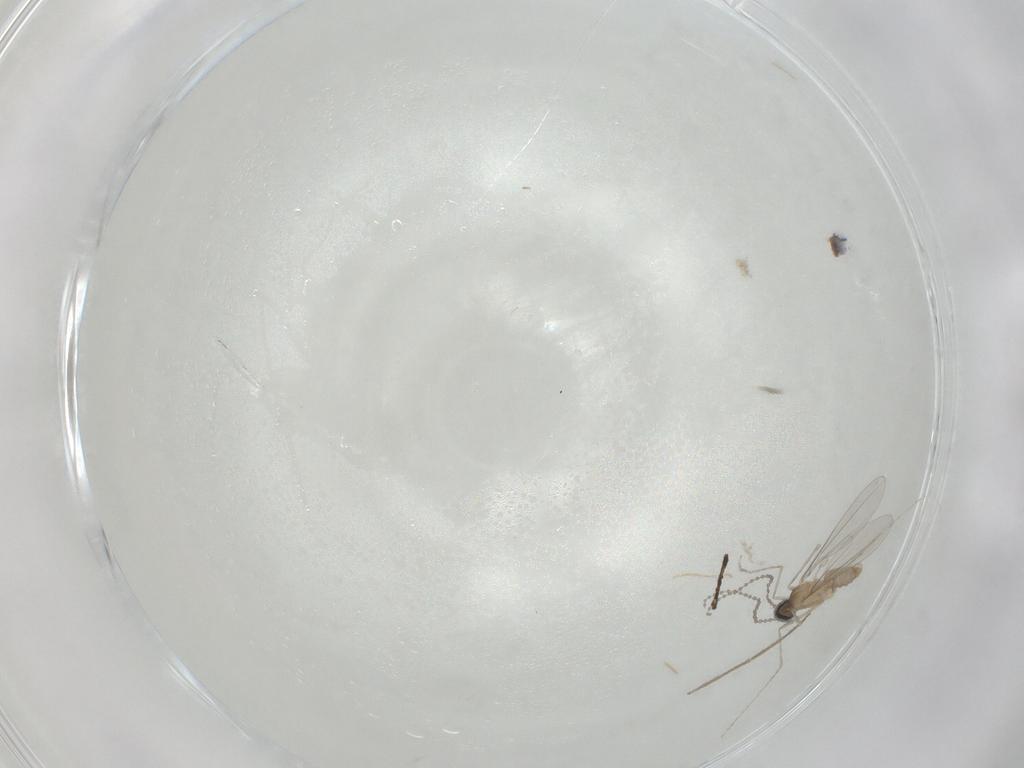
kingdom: Animalia
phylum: Arthropoda
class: Insecta
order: Diptera
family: Cecidomyiidae
